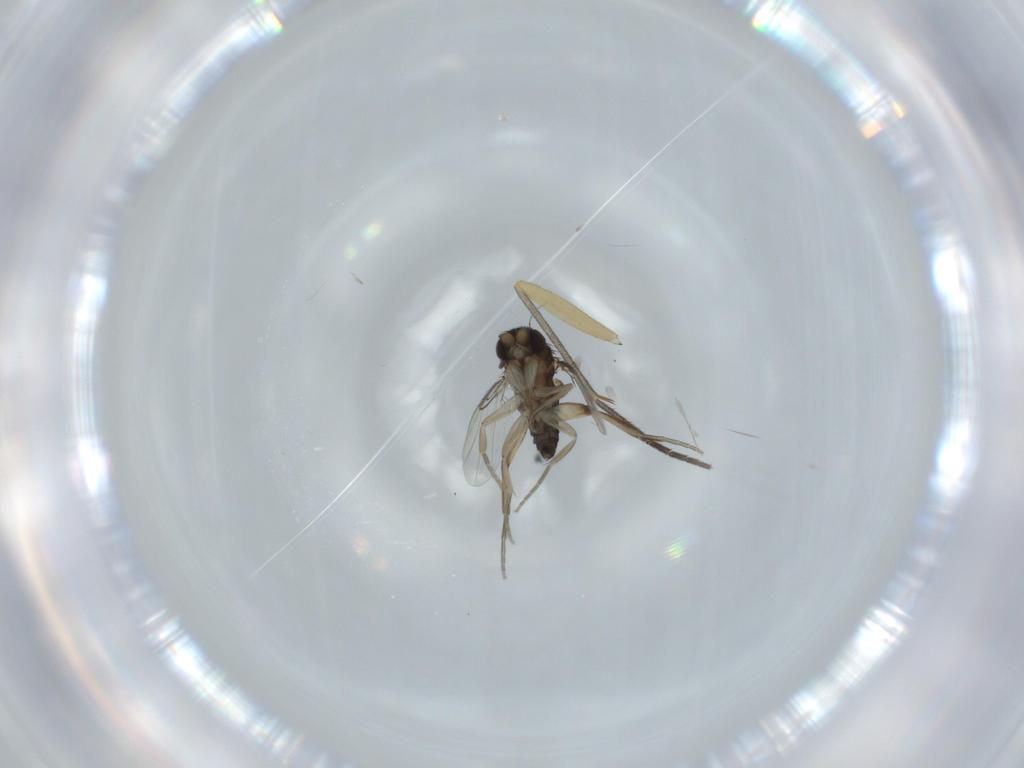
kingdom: Animalia
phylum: Arthropoda
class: Insecta
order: Diptera
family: Phoridae
